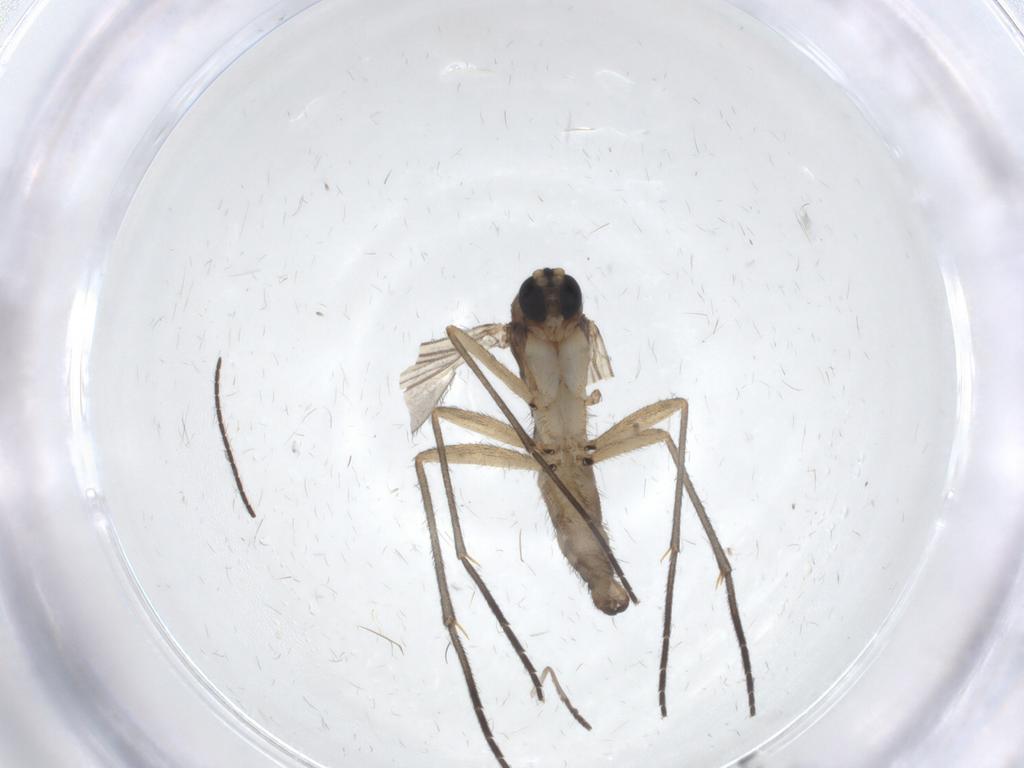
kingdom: Animalia
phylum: Arthropoda
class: Insecta
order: Diptera
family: Sciaridae
